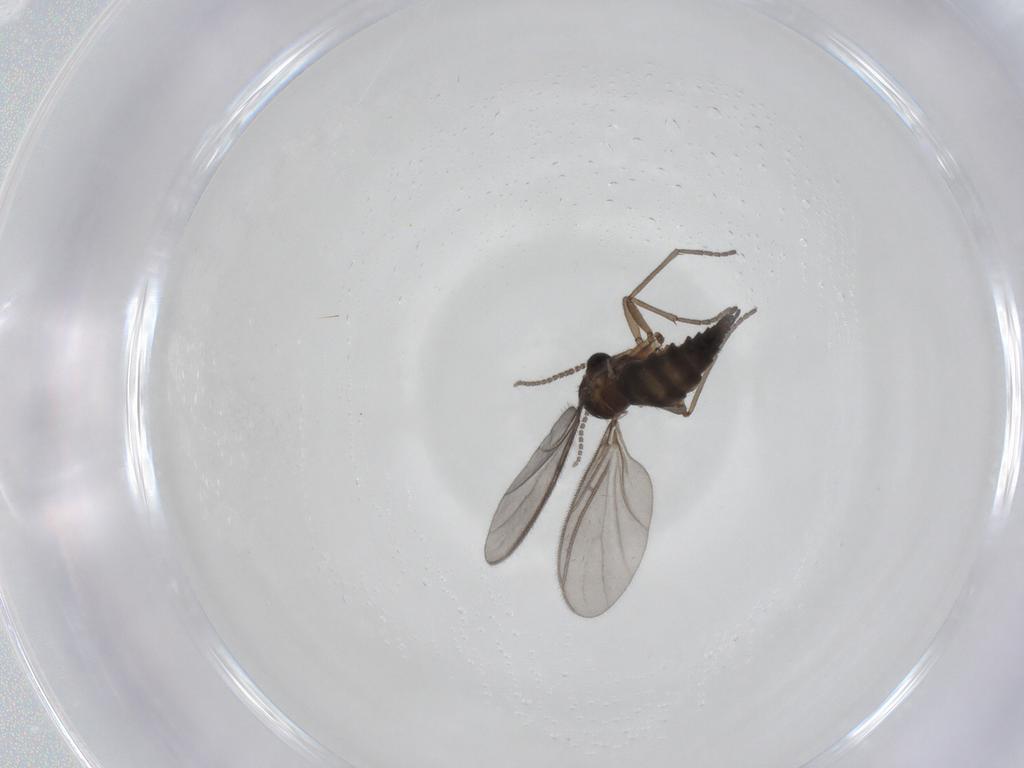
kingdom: Animalia
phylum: Arthropoda
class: Insecta
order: Diptera
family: Sciaridae
